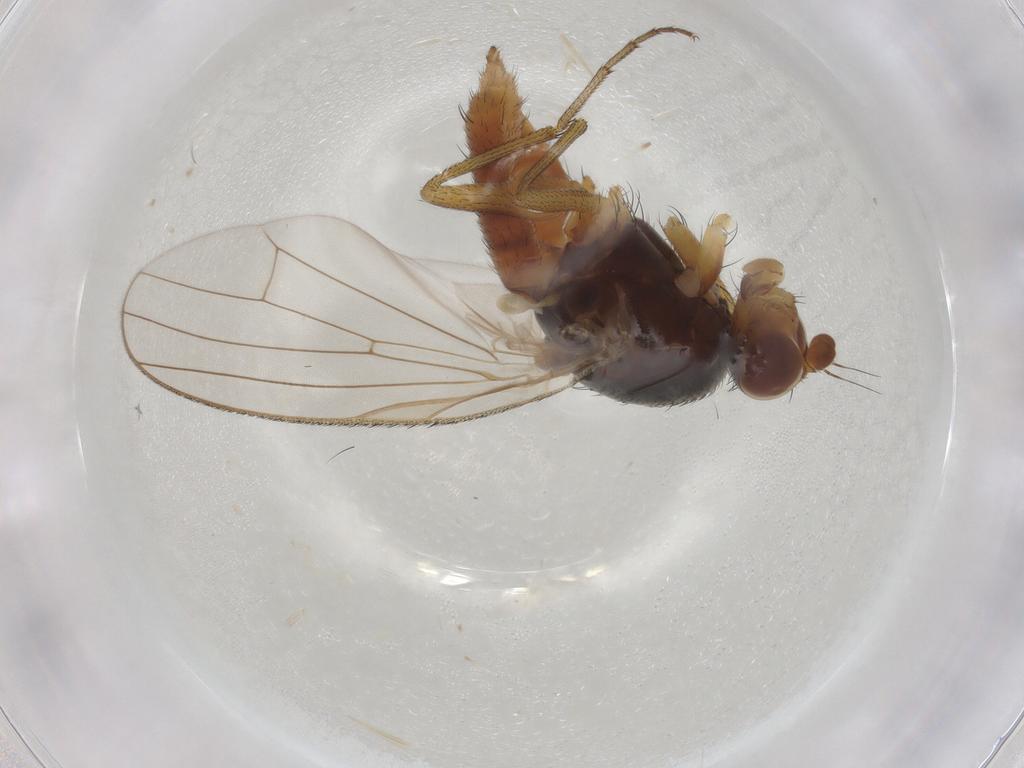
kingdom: Animalia
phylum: Arthropoda
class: Insecta
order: Diptera
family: Heleomyzidae
